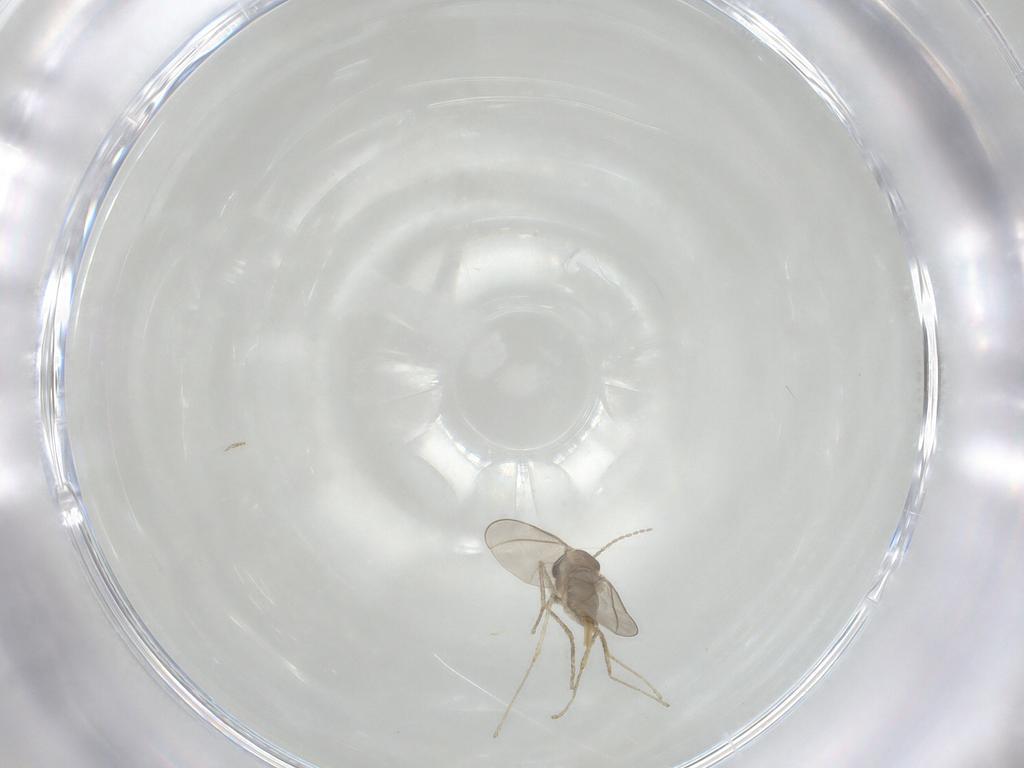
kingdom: Animalia
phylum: Arthropoda
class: Insecta
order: Diptera
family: Cecidomyiidae
